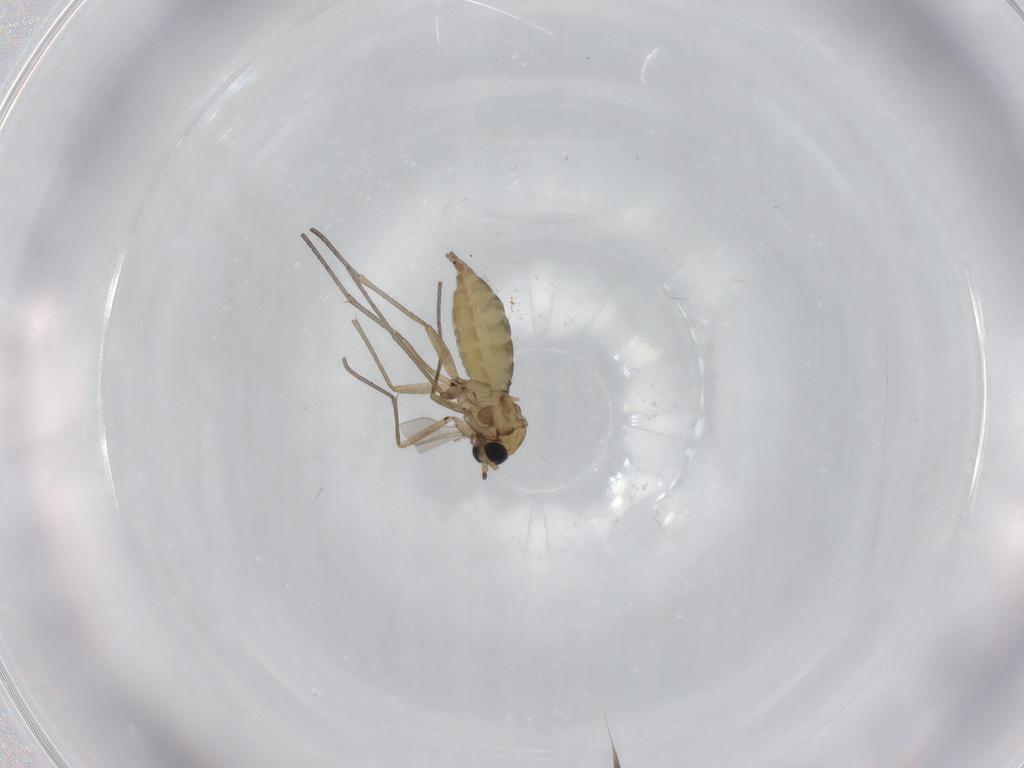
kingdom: Animalia
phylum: Arthropoda
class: Insecta
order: Diptera
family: Sciaridae
